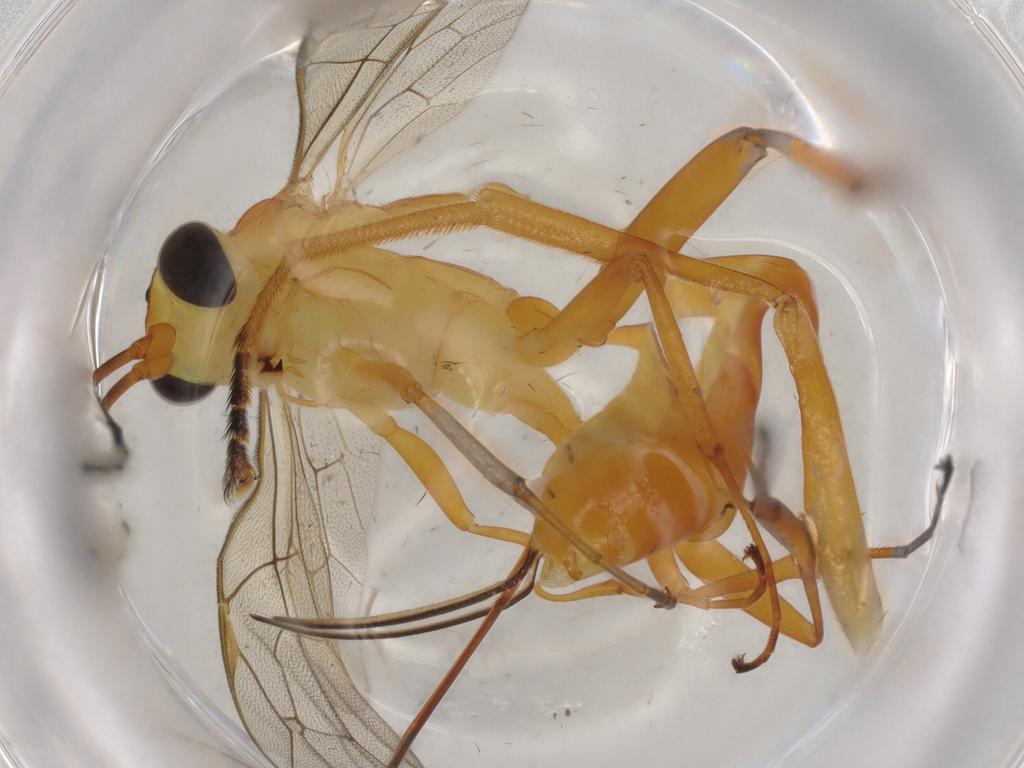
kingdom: Animalia
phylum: Arthropoda
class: Insecta
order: Hymenoptera
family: Ichneumonidae
